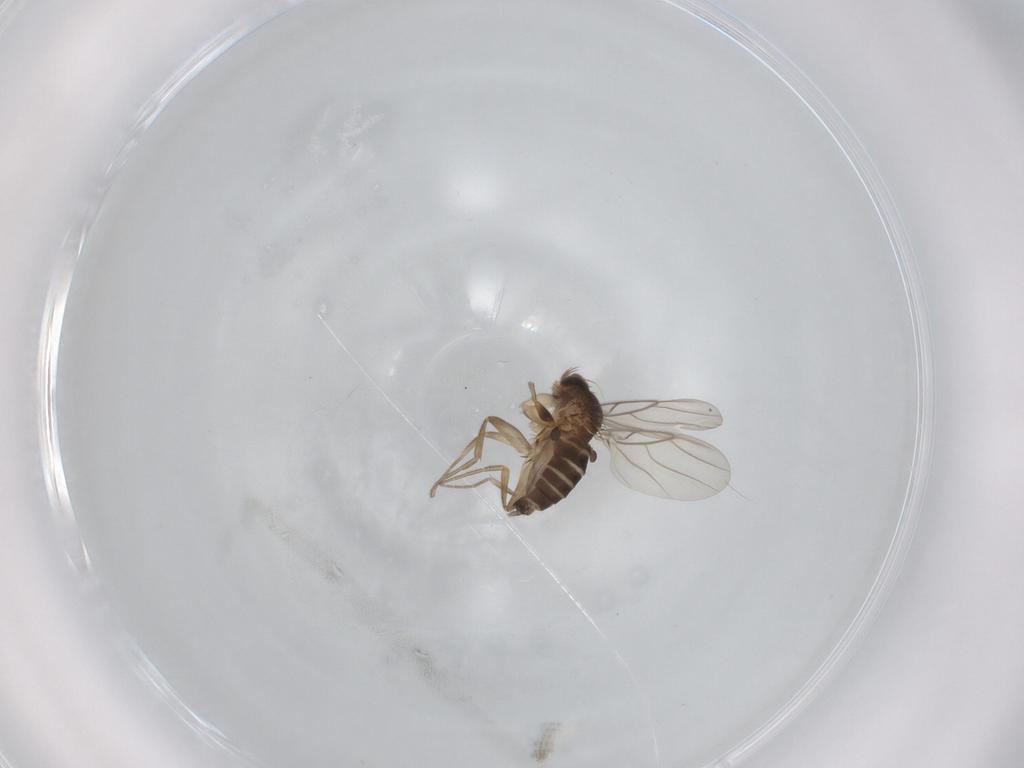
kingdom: Animalia
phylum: Arthropoda
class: Insecta
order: Diptera
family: Phoridae
